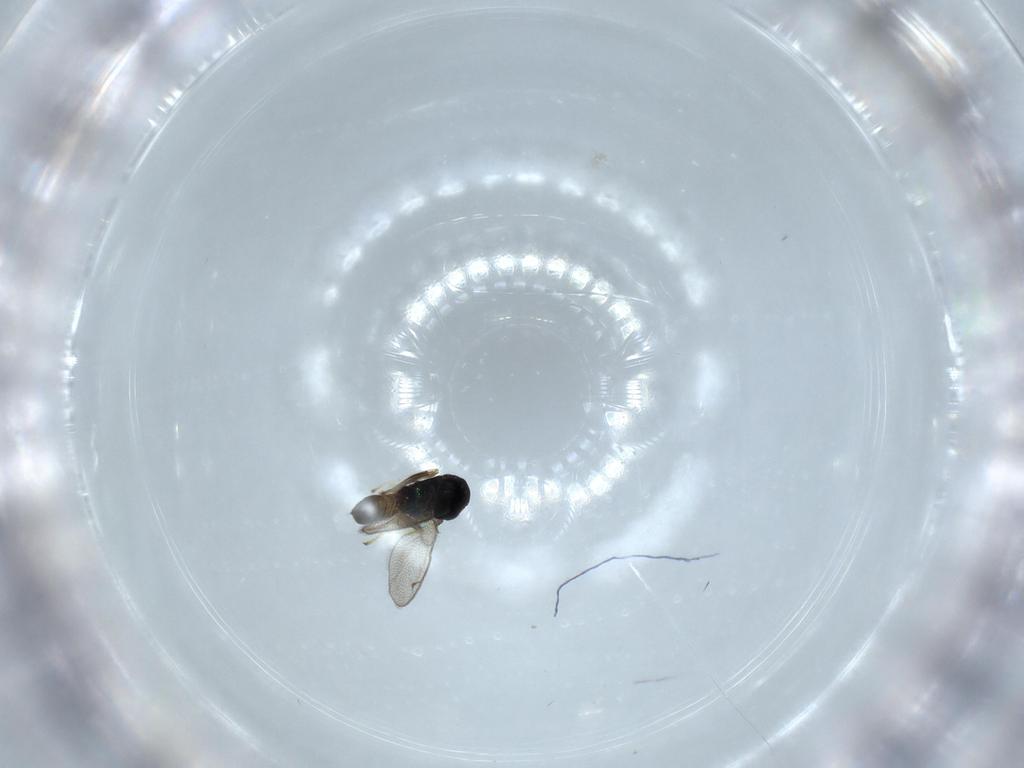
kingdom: Animalia
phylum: Arthropoda
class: Insecta
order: Hymenoptera
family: Pteromalidae
